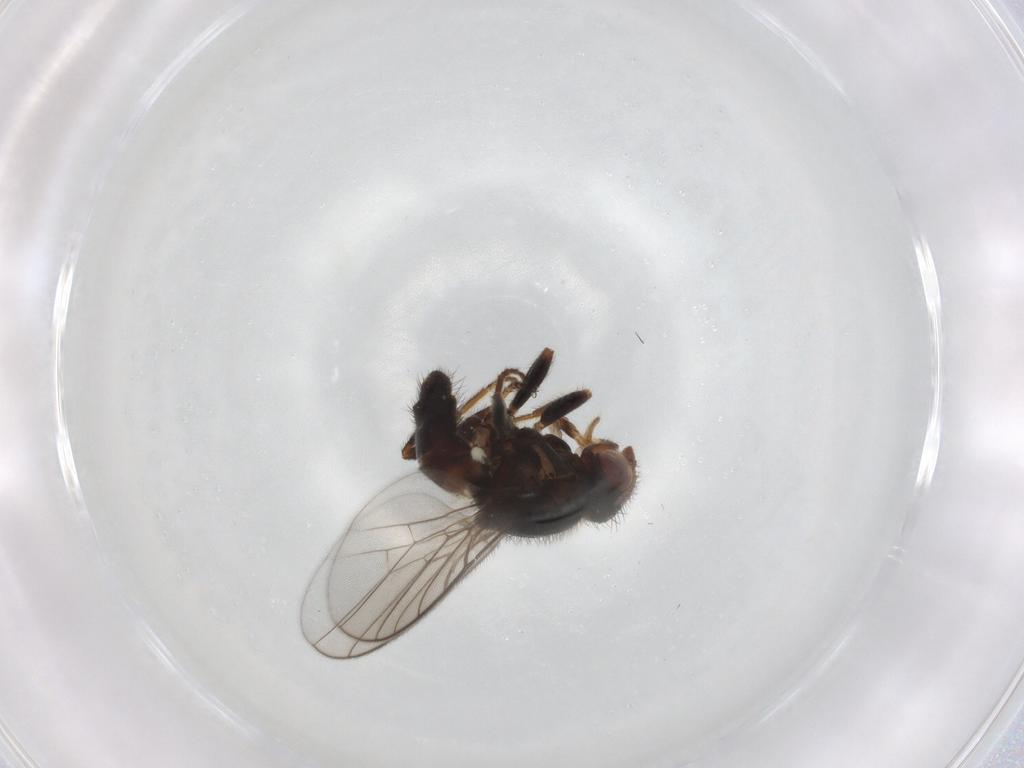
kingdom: Animalia
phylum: Arthropoda
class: Insecta
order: Diptera
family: Chloropidae
